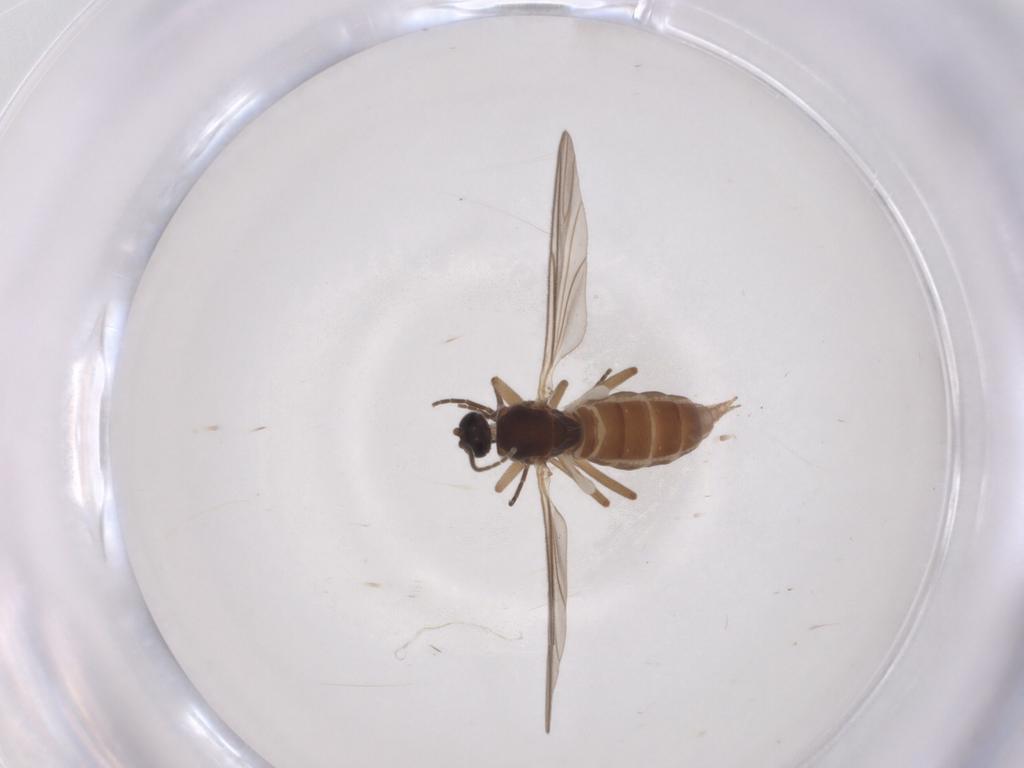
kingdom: Animalia
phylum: Arthropoda
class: Insecta
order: Diptera
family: Sciaridae
